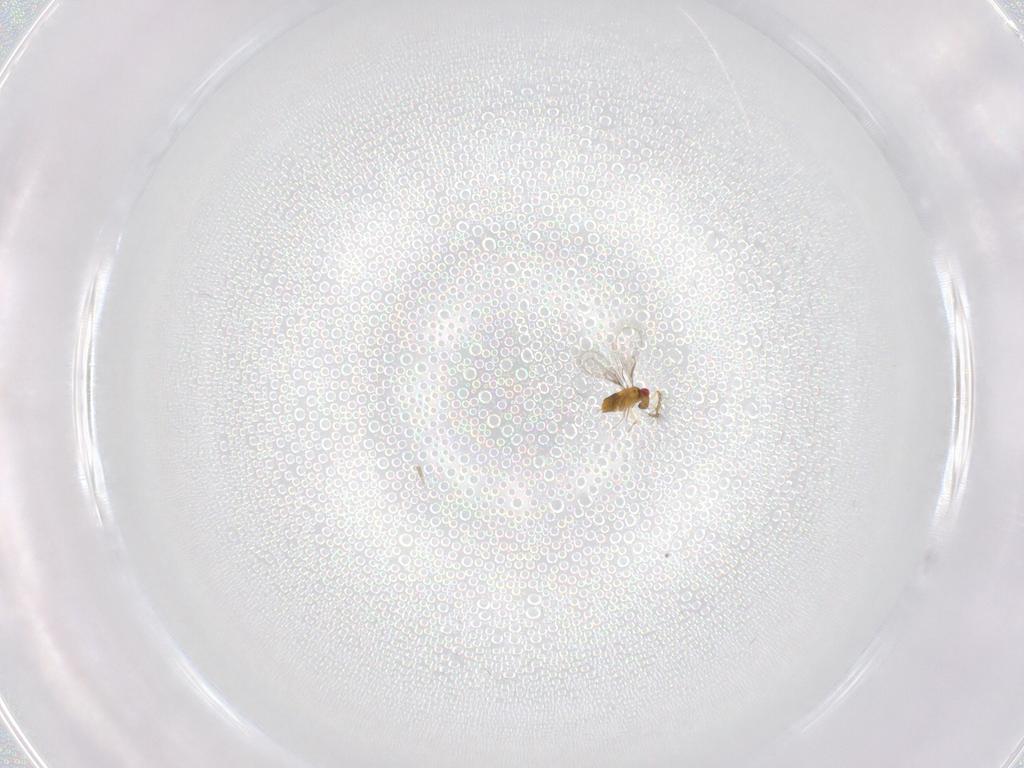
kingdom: Animalia
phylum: Arthropoda
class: Insecta
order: Hymenoptera
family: Trichogrammatidae
